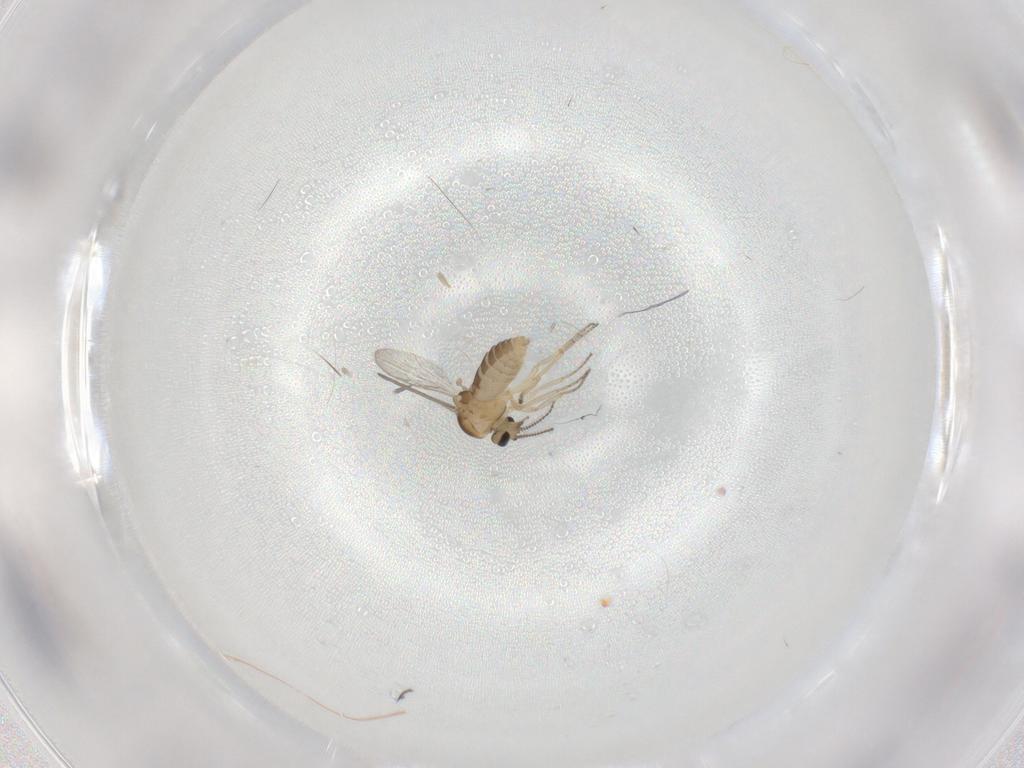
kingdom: Animalia
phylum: Arthropoda
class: Insecta
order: Diptera
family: Ceratopogonidae
